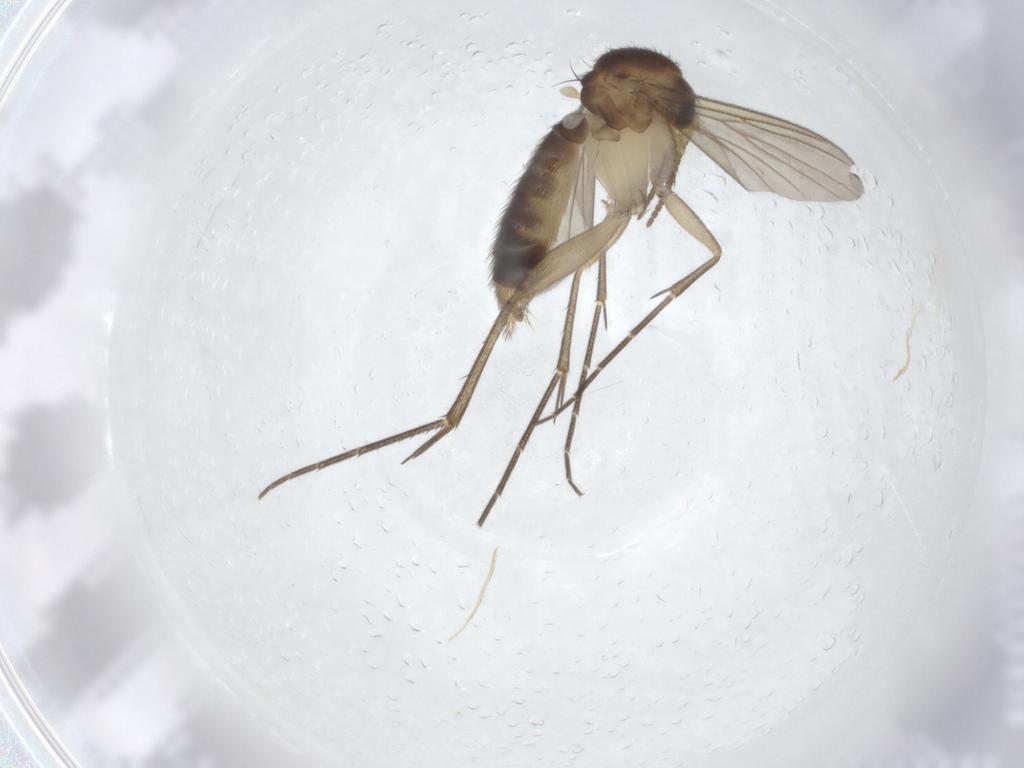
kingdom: Animalia
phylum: Arthropoda
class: Insecta
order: Diptera
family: Mycetophilidae
